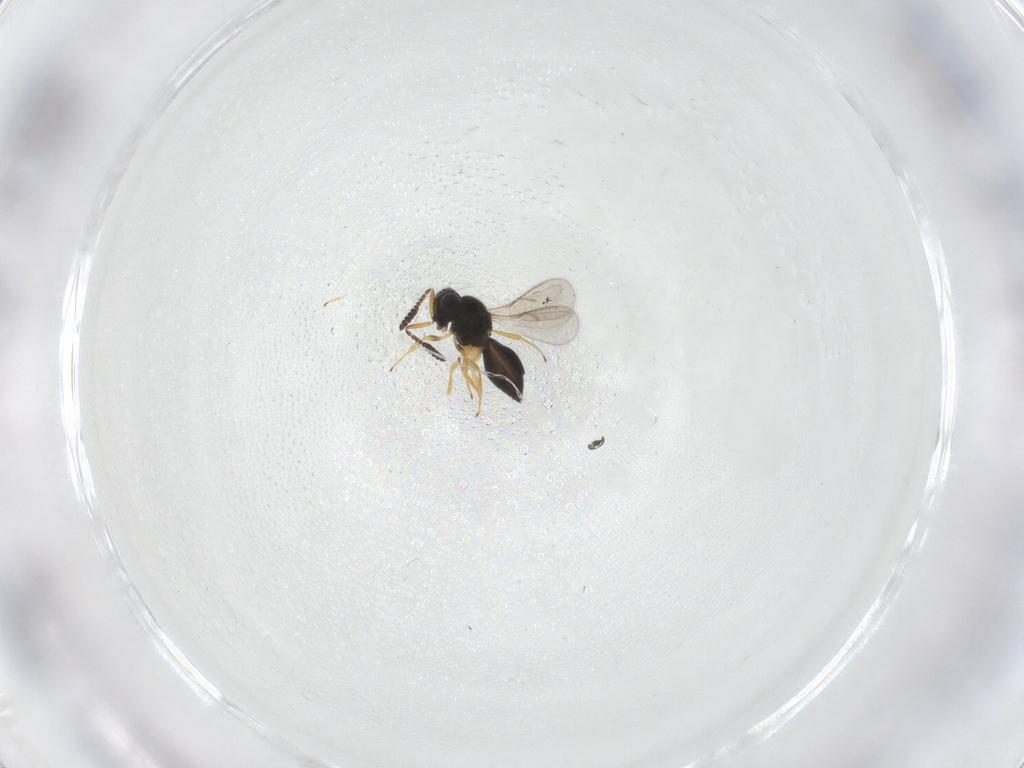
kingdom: Animalia
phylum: Arthropoda
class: Insecta
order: Hymenoptera
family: Scelionidae
